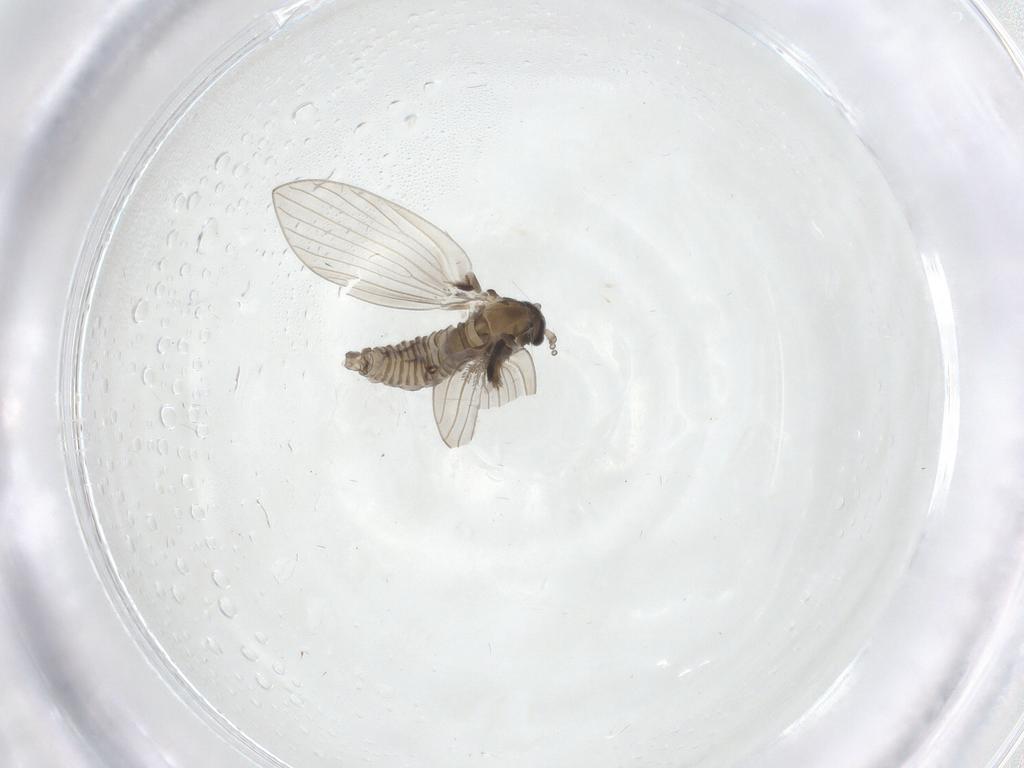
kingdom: Animalia
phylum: Arthropoda
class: Insecta
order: Diptera
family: Psychodidae
